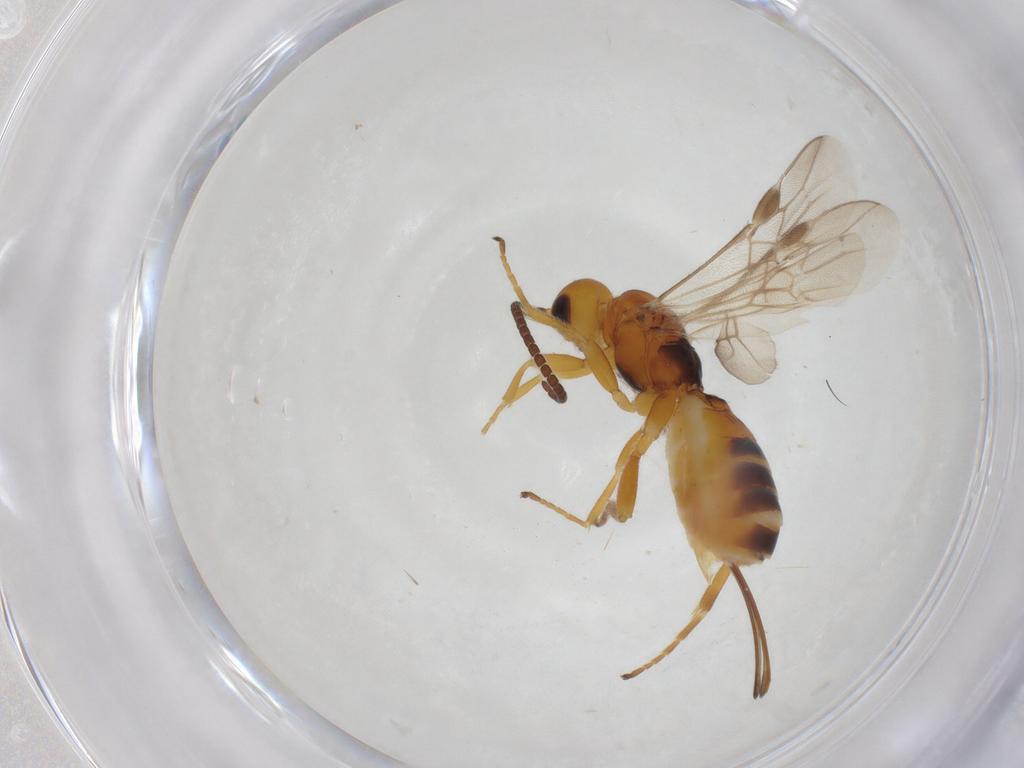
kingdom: Animalia
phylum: Arthropoda
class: Insecta
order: Hymenoptera
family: Braconidae
